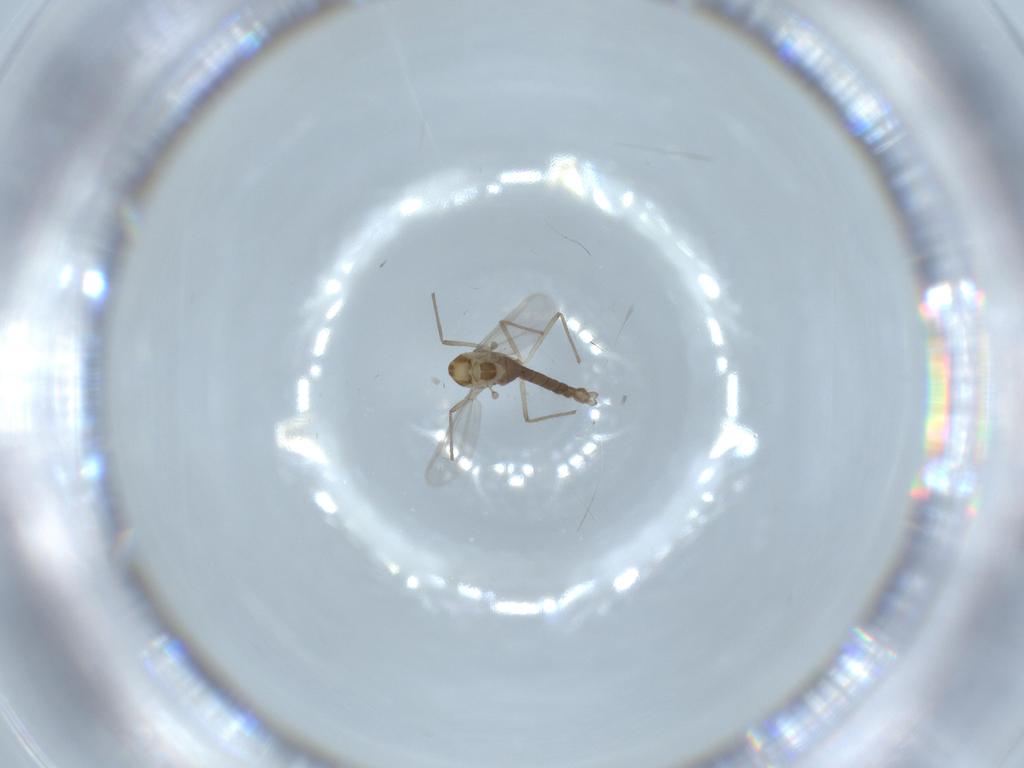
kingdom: Animalia
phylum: Arthropoda
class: Insecta
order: Diptera
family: Chironomidae
